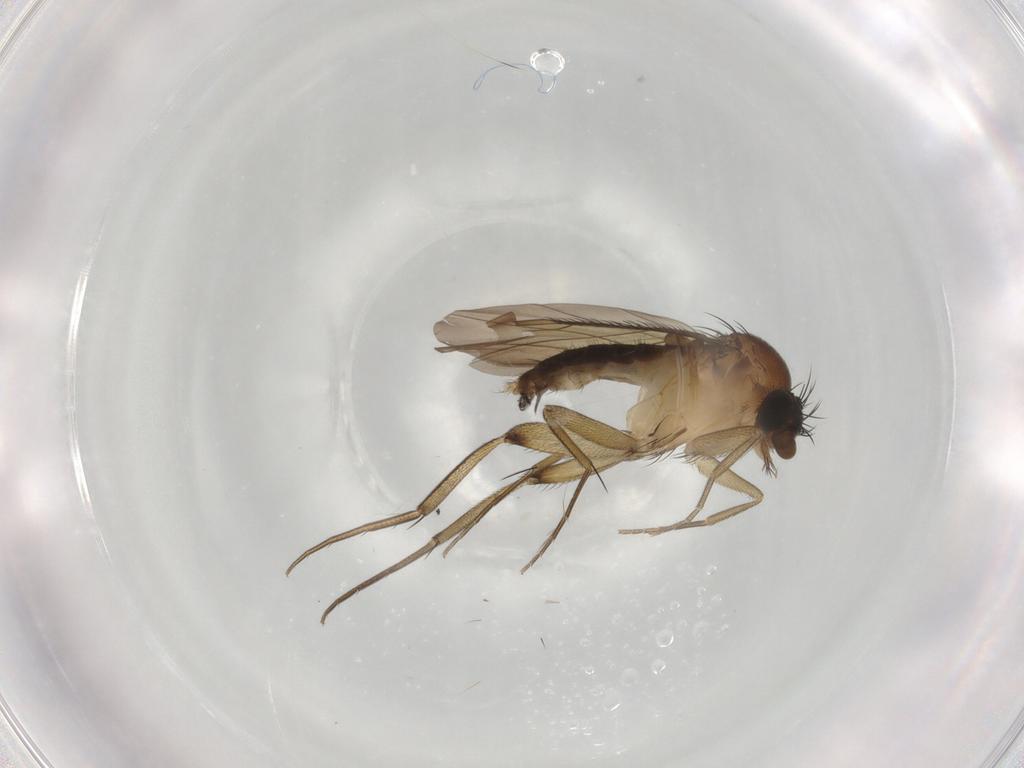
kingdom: Animalia
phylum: Arthropoda
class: Insecta
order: Diptera
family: Phoridae
